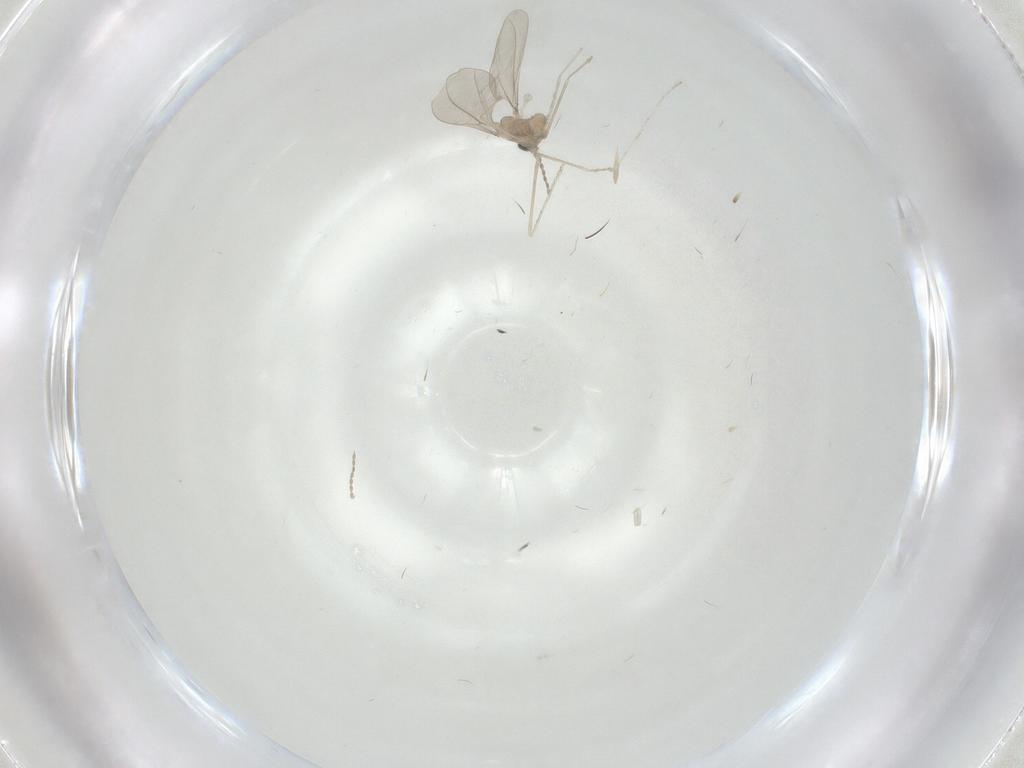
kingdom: Animalia
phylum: Arthropoda
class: Insecta
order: Diptera
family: Cecidomyiidae
